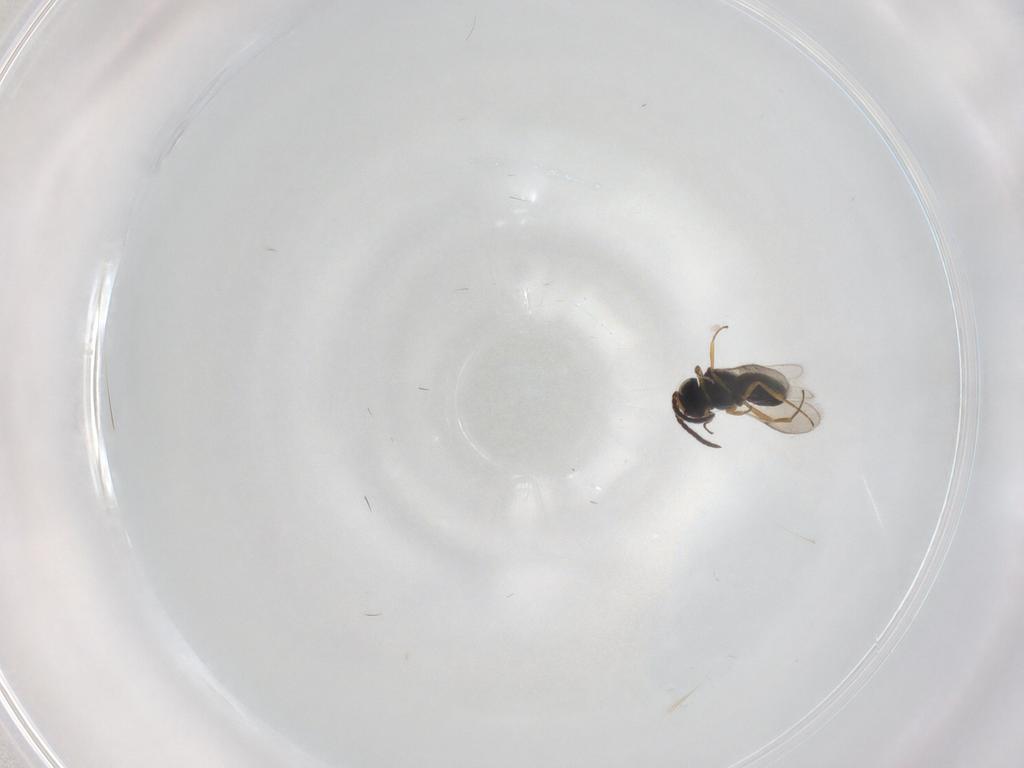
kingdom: Animalia
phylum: Arthropoda
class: Insecta
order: Hymenoptera
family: Scelionidae
